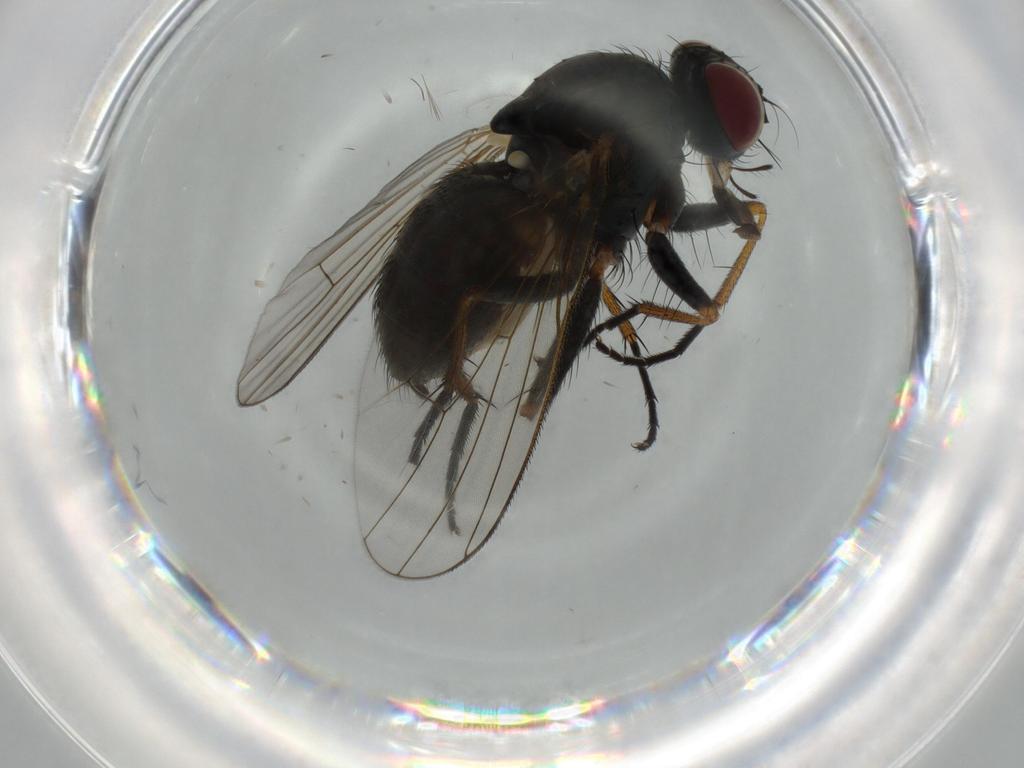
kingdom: Animalia
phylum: Arthropoda
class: Insecta
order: Diptera
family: Muscidae
